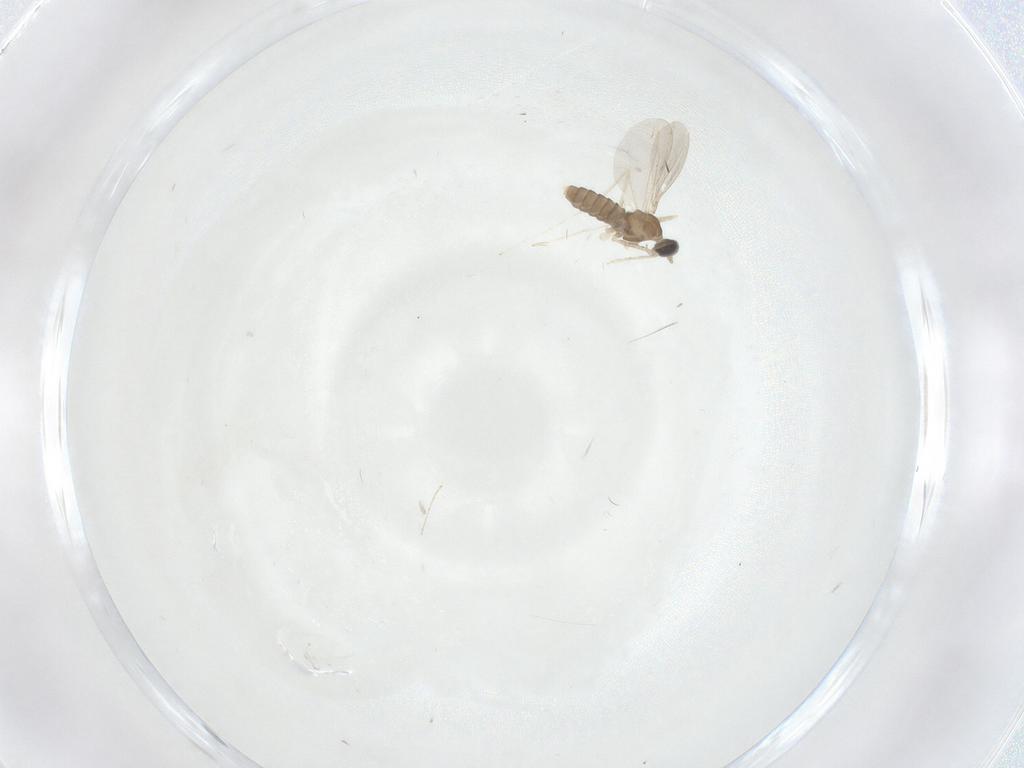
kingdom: Animalia
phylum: Arthropoda
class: Insecta
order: Diptera
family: Cecidomyiidae
